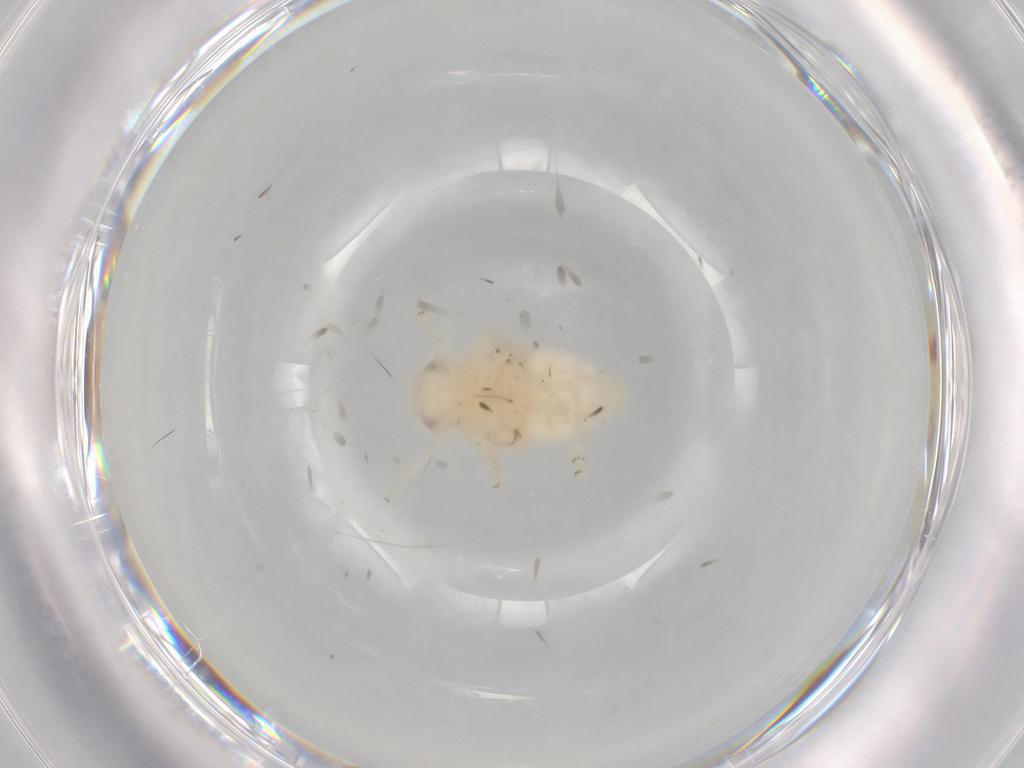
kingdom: Animalia
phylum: Arthropoda
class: Insecta
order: Hemiptera
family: Nogodinidae
